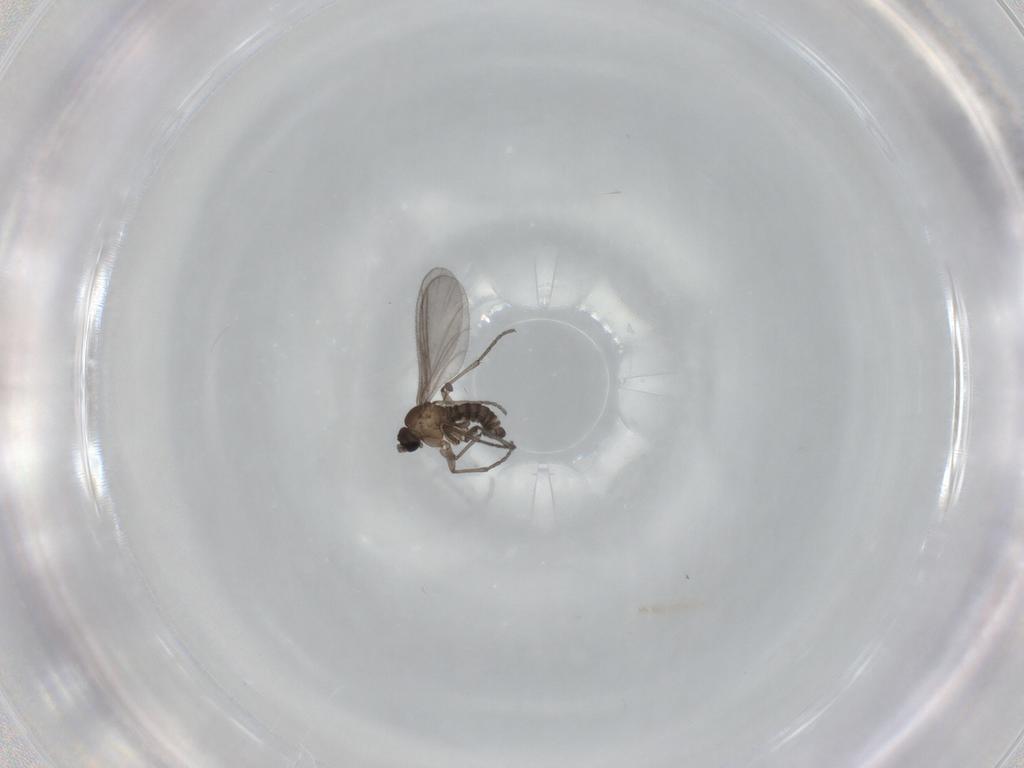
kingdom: Animalia
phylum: Arthropoda
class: Insecta
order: Diptera
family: Sciaridae
